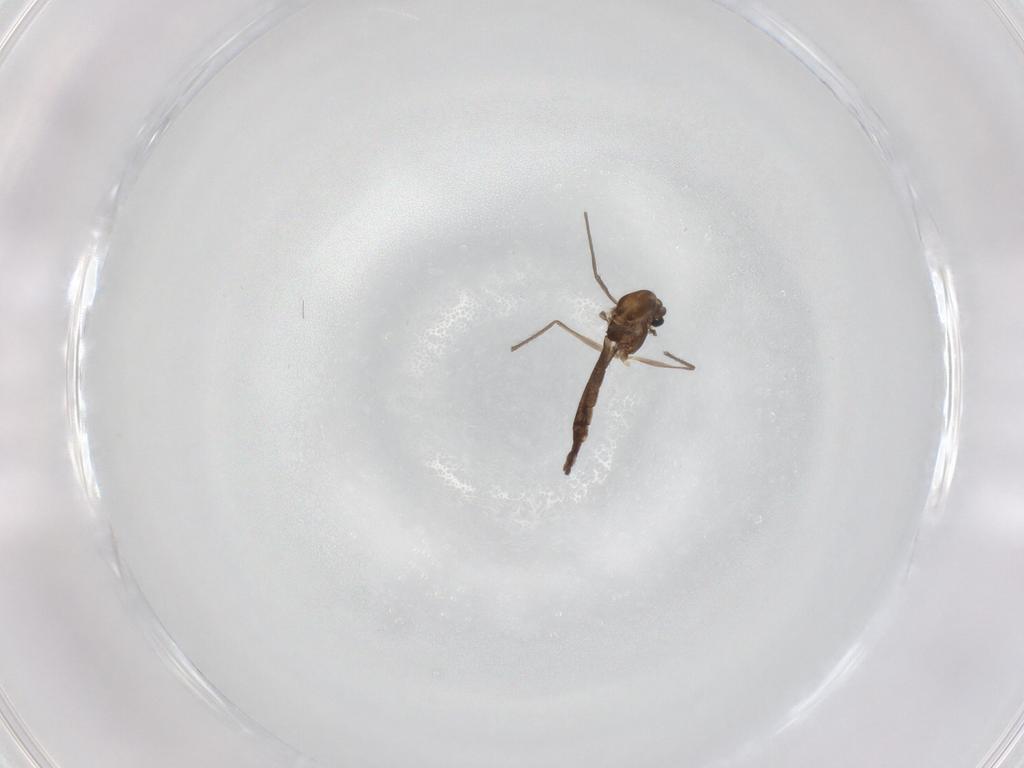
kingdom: Animalia
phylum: Arthropoda
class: Insecta
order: Diptera
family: Chironomidae
